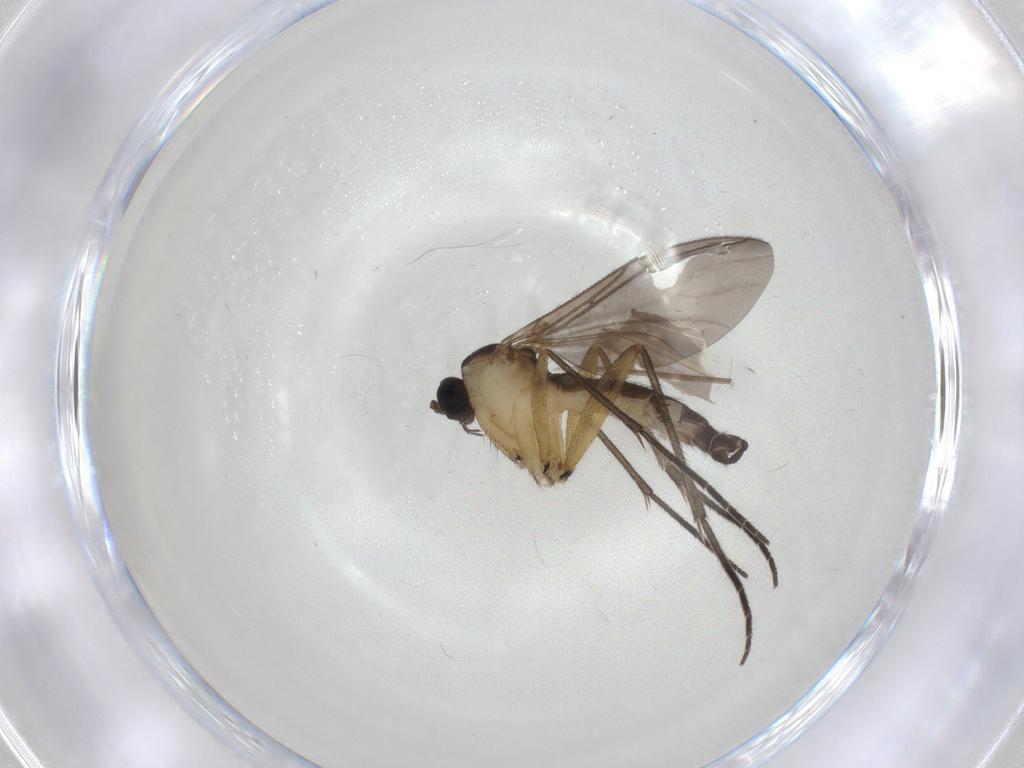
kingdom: Animalia
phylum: Arthropoda
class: Insecta
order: Diptera
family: Sciaridae
